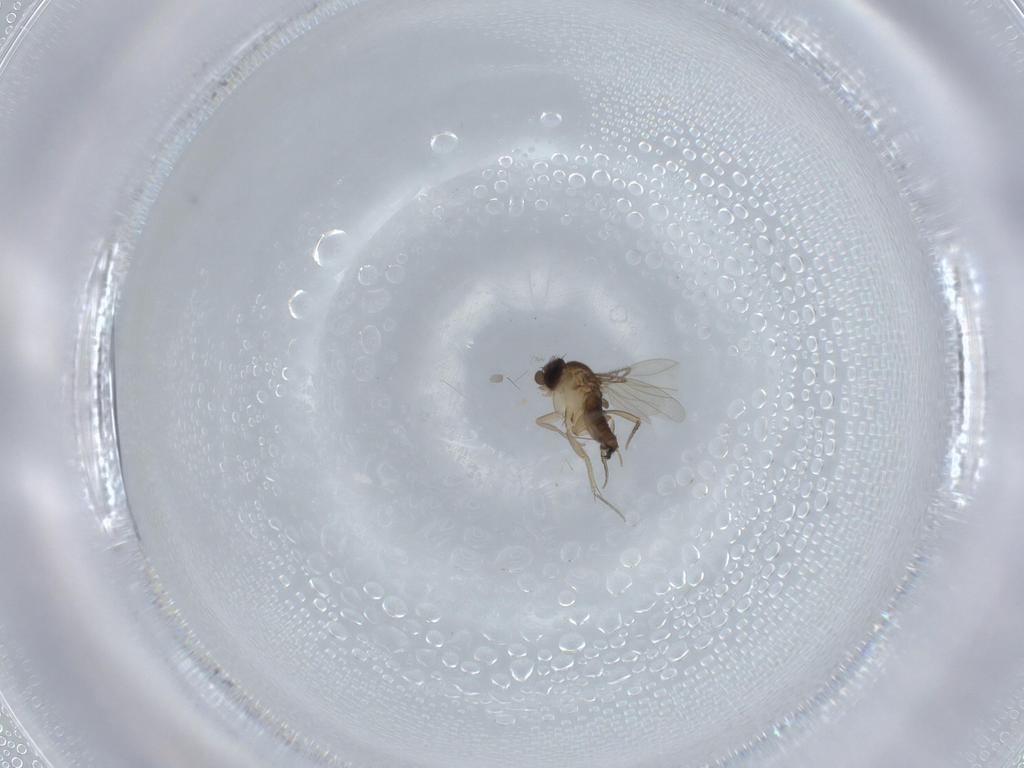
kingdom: Animalia
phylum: Arthropoda
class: Insecta
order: Diptera
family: Phoridae
